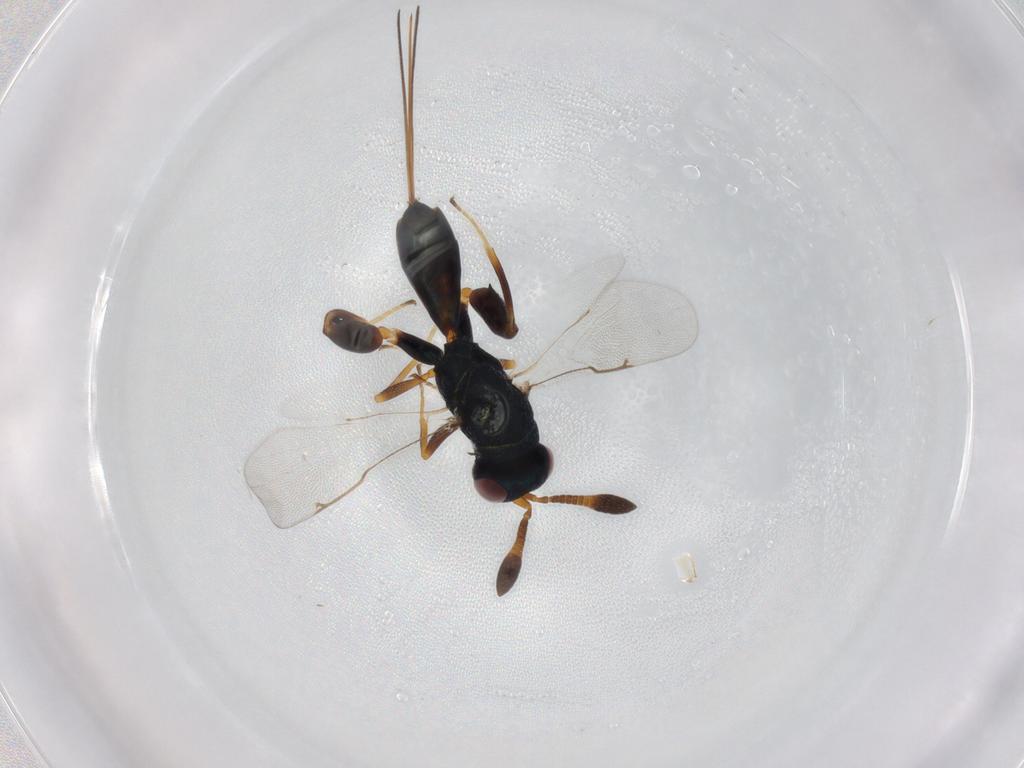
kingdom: Animalia
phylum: Arthropoda
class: Insecta
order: Hymenoptera
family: Torymidae
